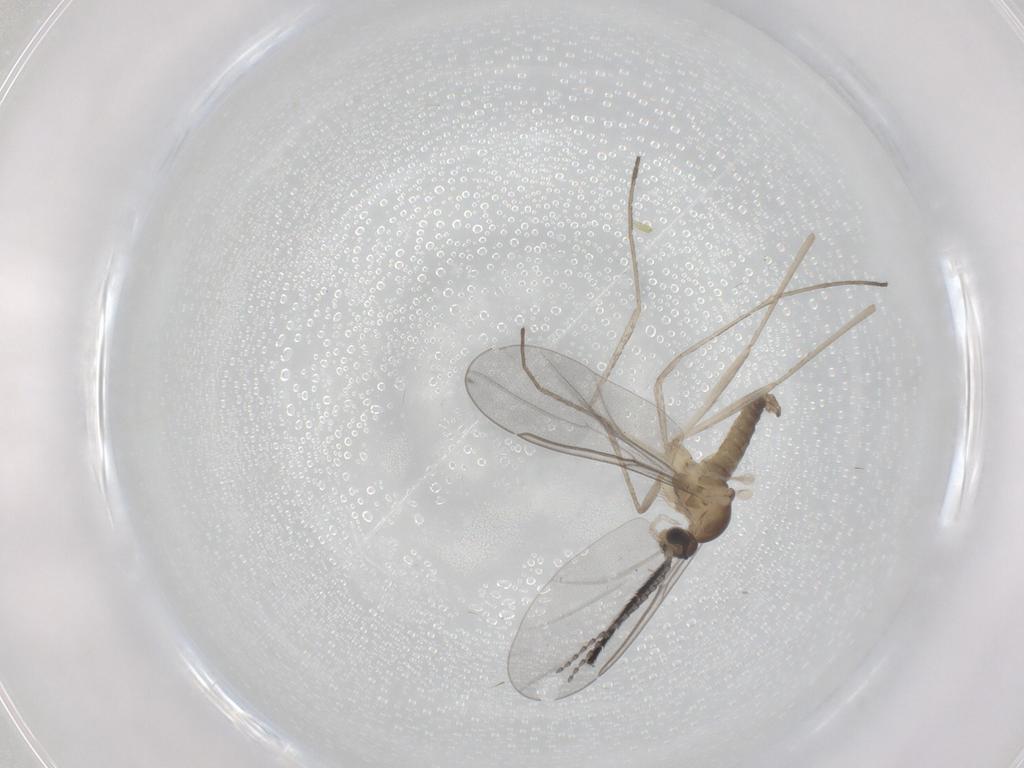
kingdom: Animalia
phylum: Arthropoda
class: Insecta
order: Diptera
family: Cecidomyiidae
